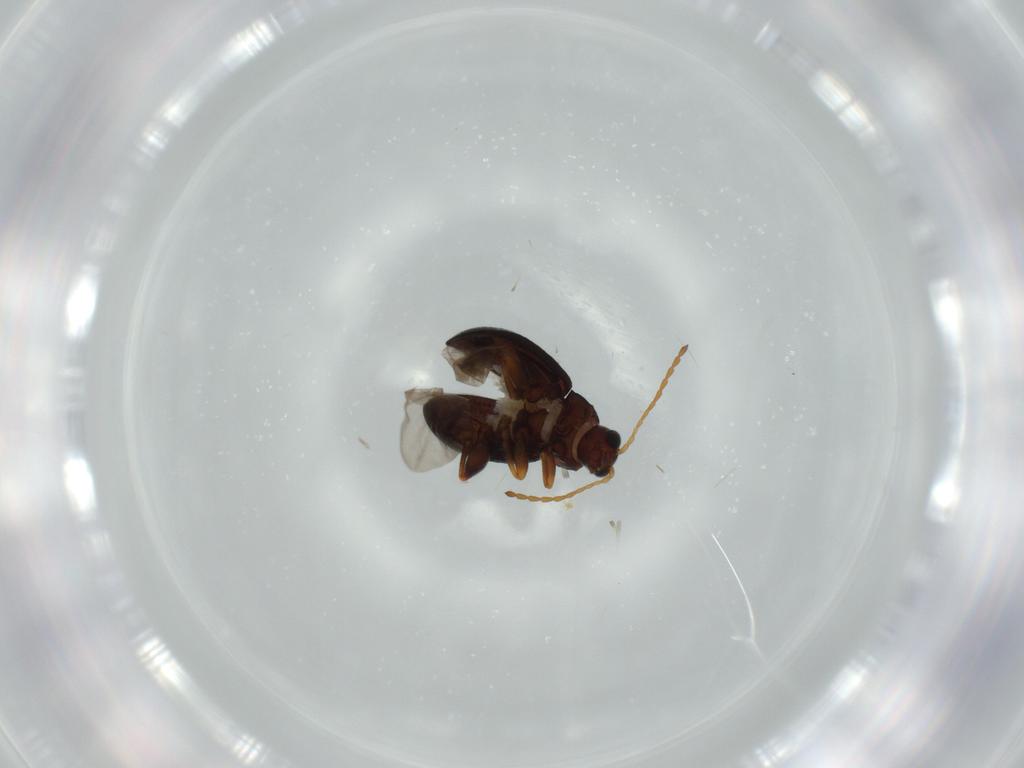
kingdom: Animalia
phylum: Arthropoda
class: Insecta
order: Coleoptera
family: Chrysomelidae
